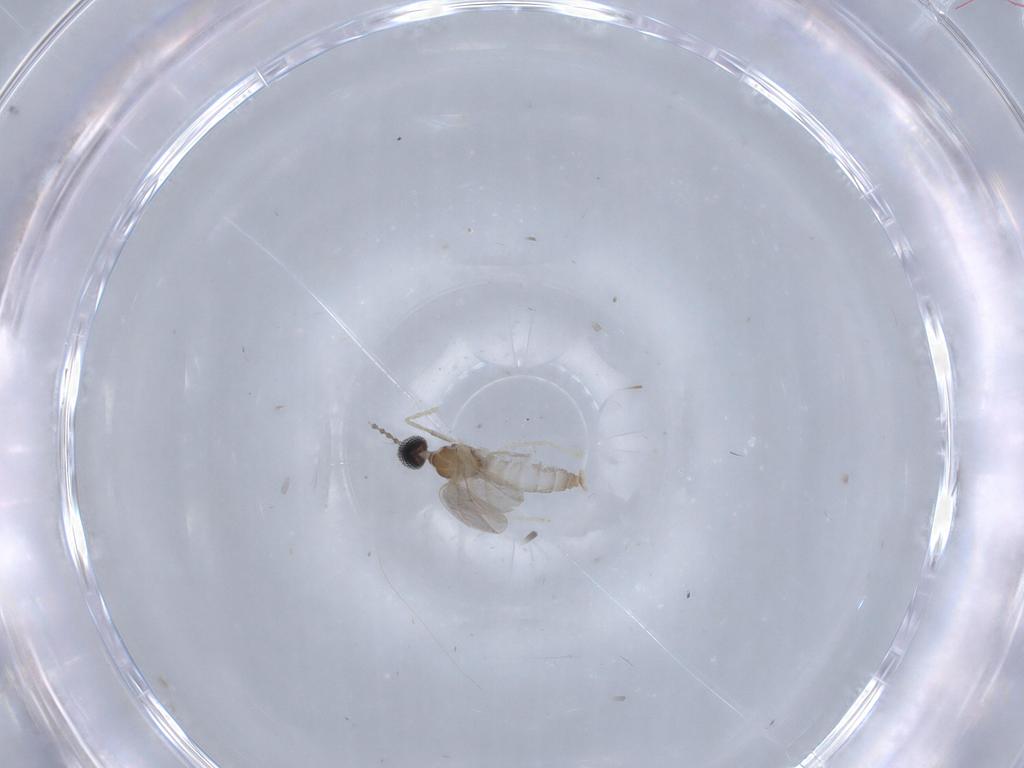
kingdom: Animalia
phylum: Arthropoda
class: Insecta
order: Diptera
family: Cecidomyiidae
